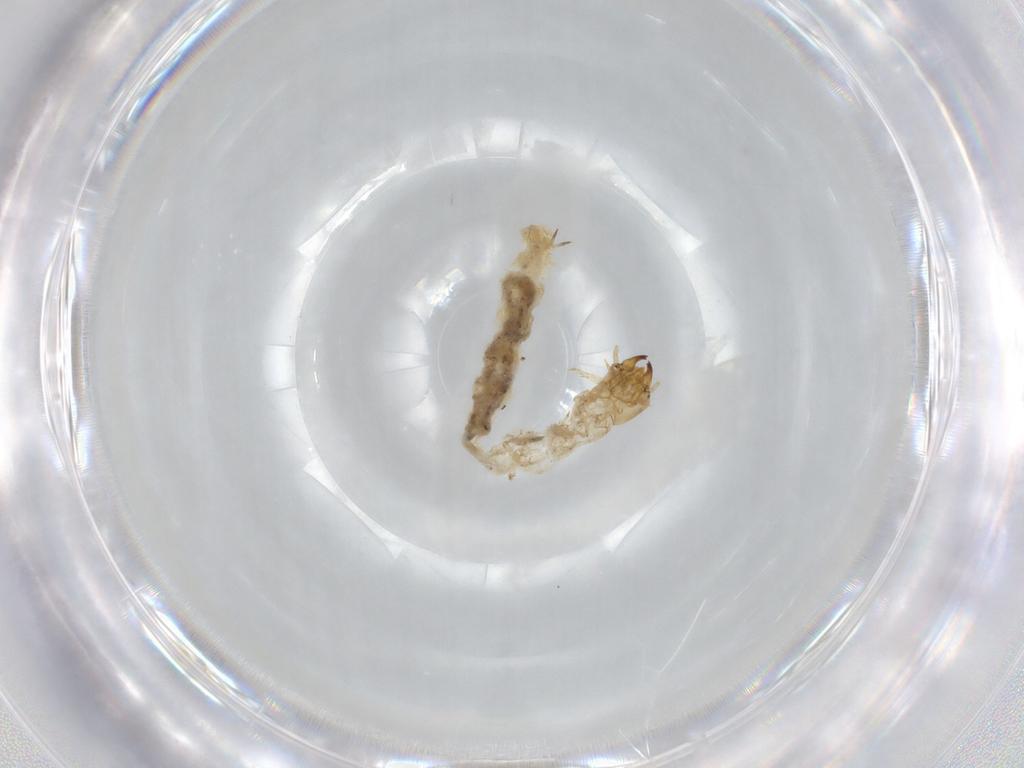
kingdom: Animalia
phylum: Arthropoda
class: Insecta
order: Coleoptera
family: Staphylinidae
